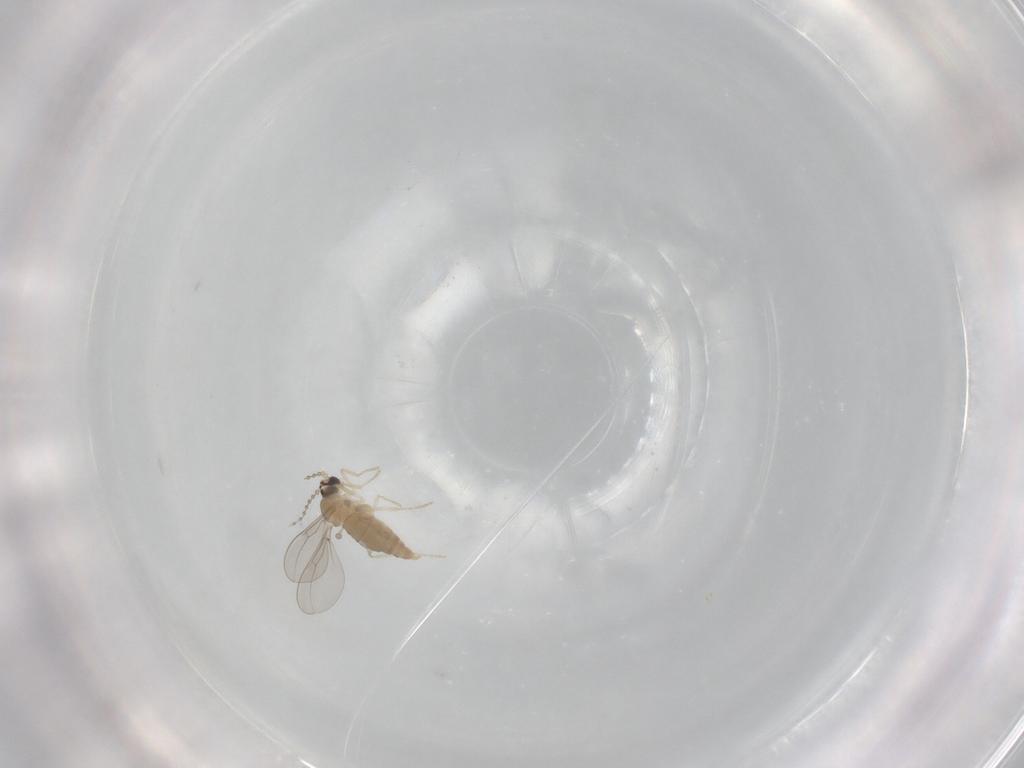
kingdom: Animalia
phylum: Arthropoda
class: Insecta
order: Diptera
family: Cecidomyiidae
